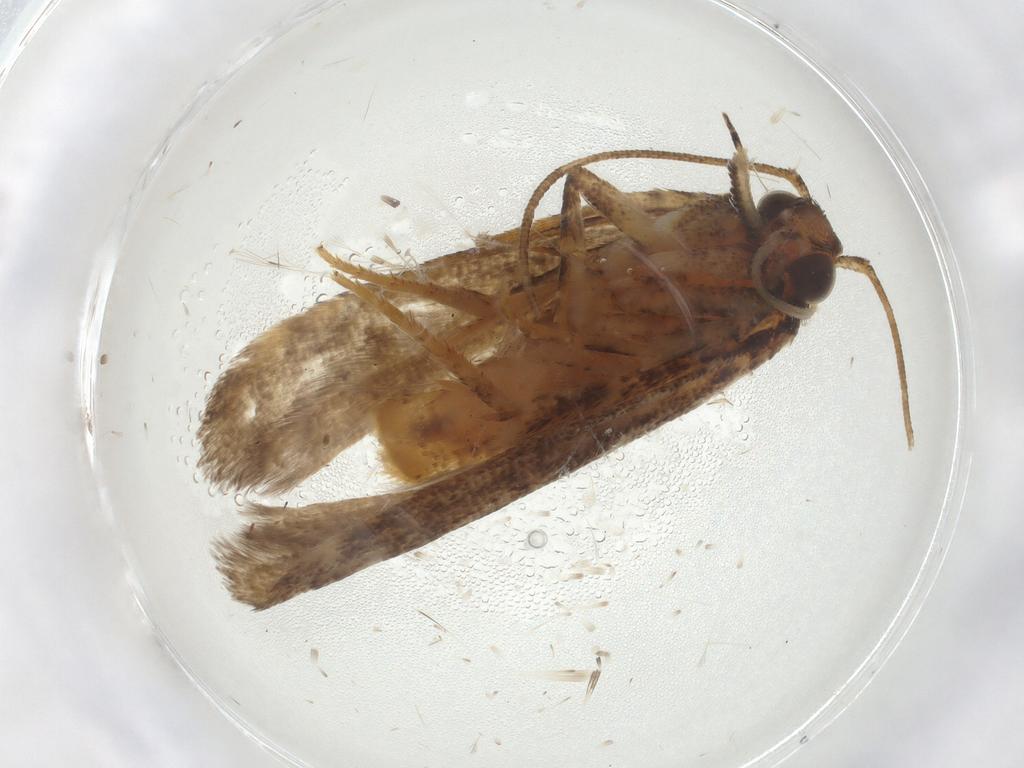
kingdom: Animalia
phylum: Arthropoda
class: Insecta
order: Lepidoptera
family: Gelechiidae
